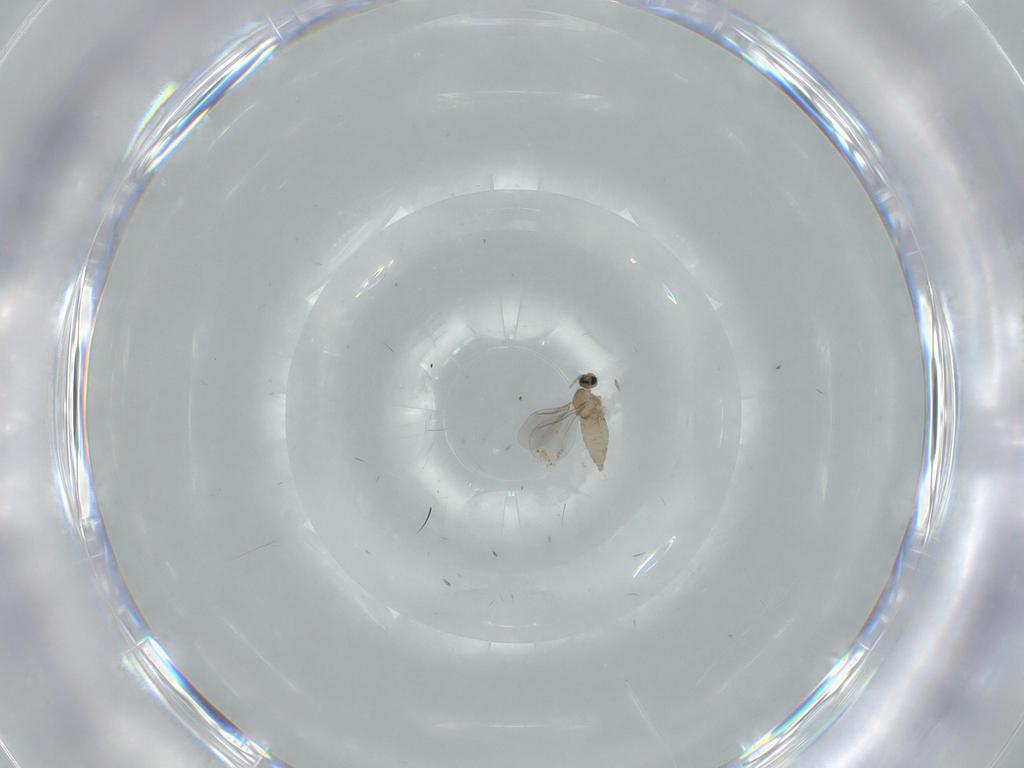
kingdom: Animalia
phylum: Arthropoda
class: Insecta
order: Diptera
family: Cecidomyiidae
